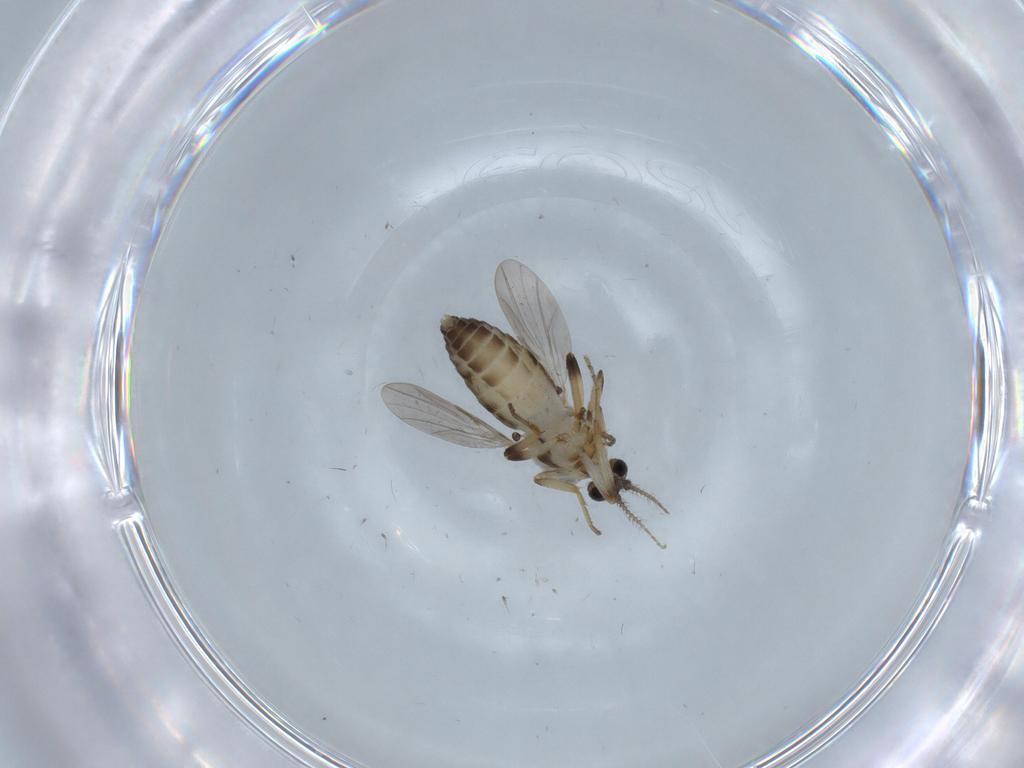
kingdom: Animalia
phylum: Arthropoda
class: Insecta
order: Diptera
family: Ceratopogonidae
